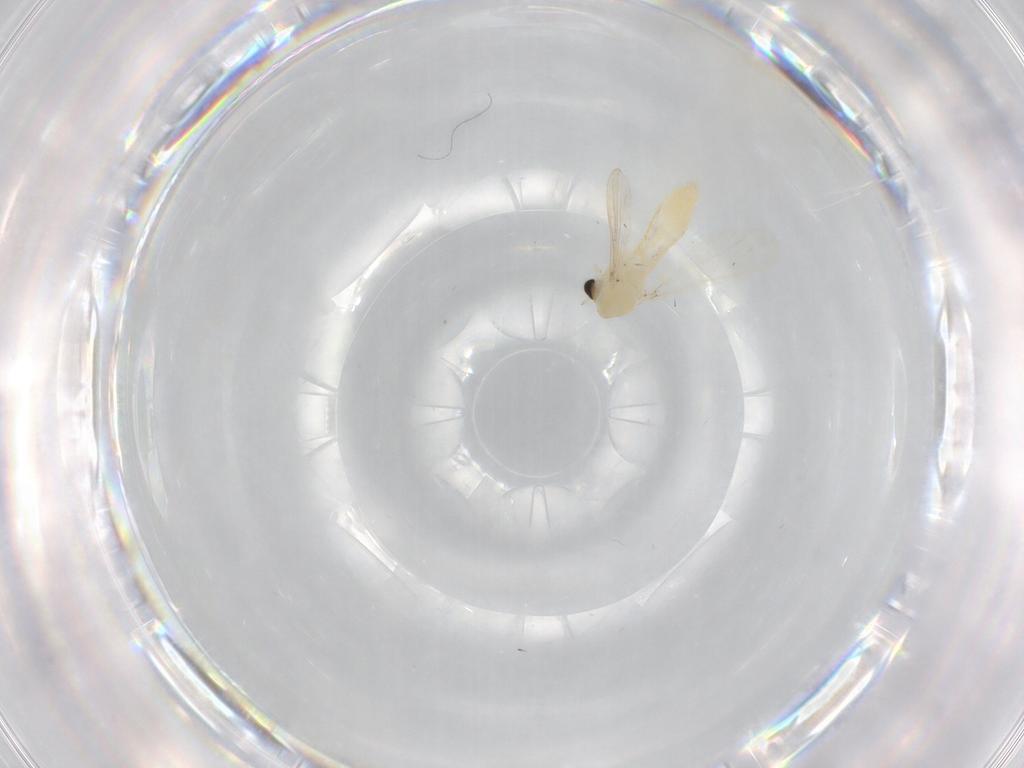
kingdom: Animalia
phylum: Arthropoda
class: Insecta
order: Diptera
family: Chironomidae
